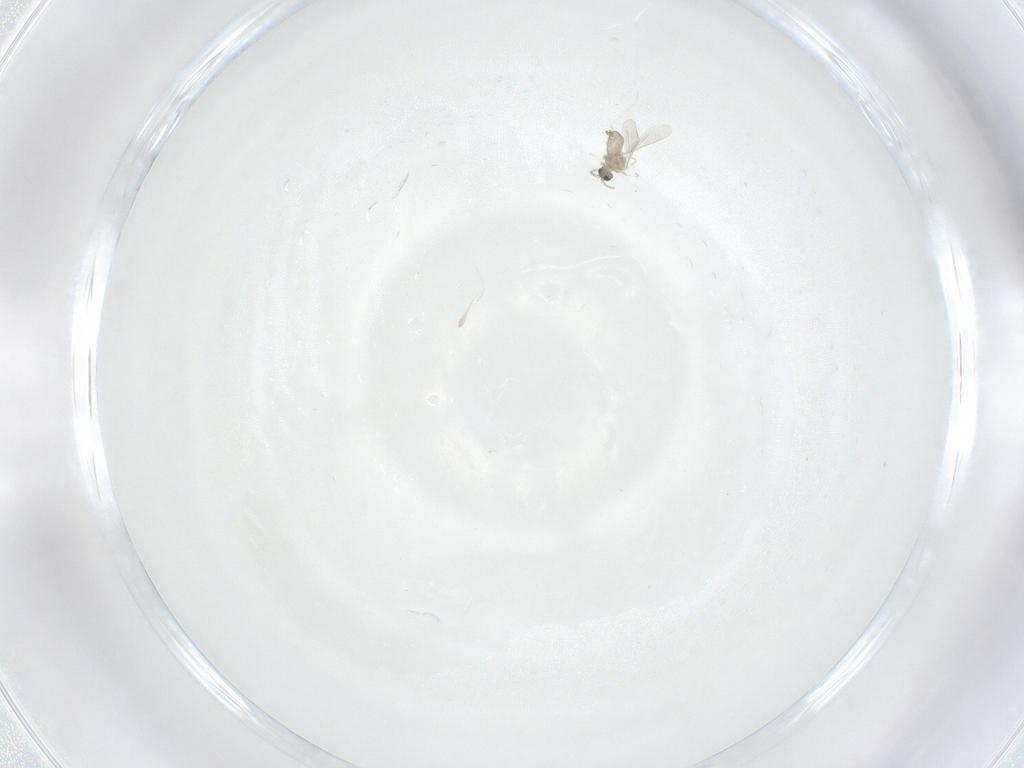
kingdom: Animalia
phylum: Arthropoda
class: Insecta
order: Diptera
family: Cecidomyiidae
